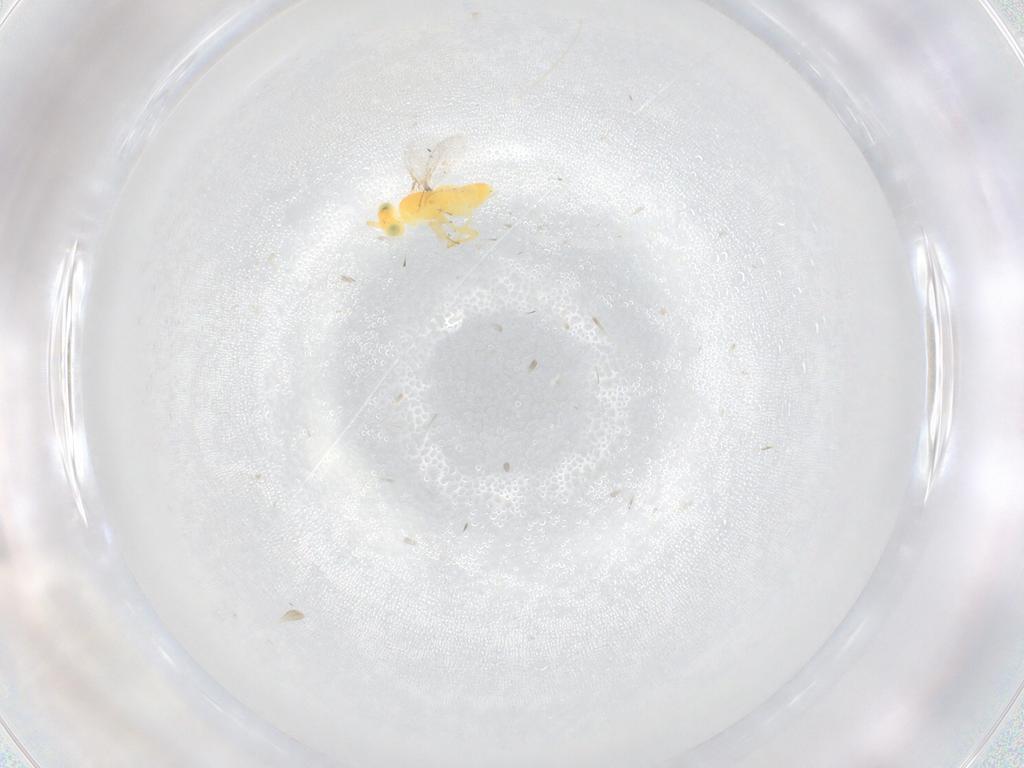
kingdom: Animalia
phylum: Arthropoda
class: Insecta
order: Hymenoptera
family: Aphelinidae
